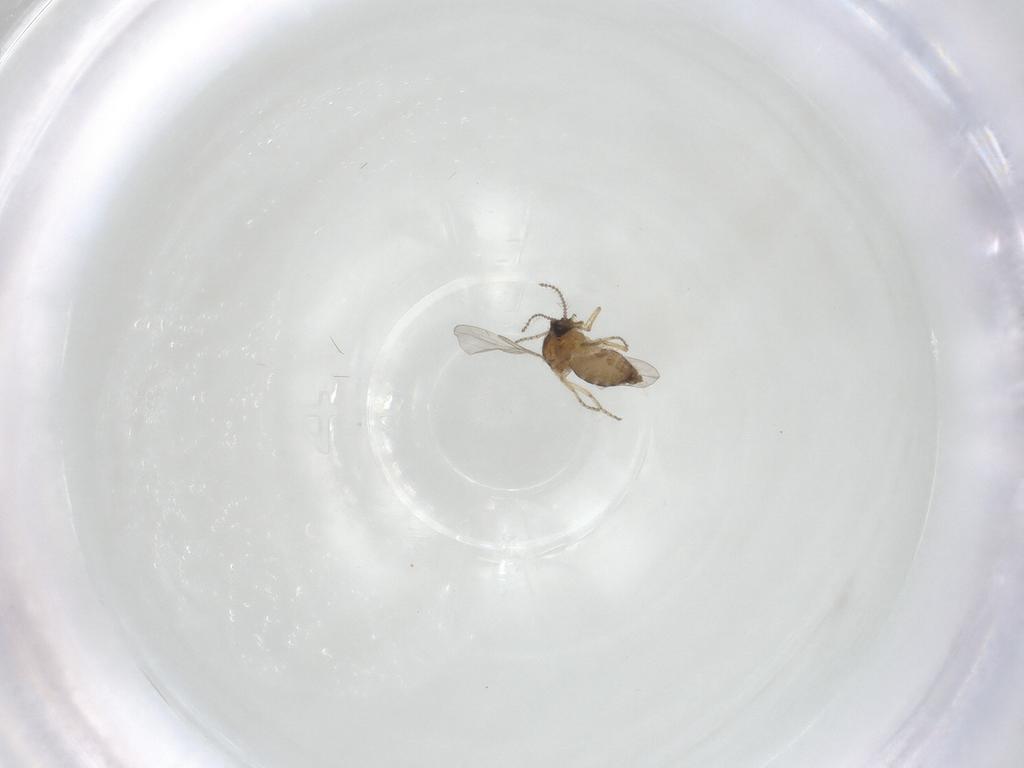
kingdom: Animalia
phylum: Arthropoda
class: Insecta
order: Diptera
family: Ceratopogonidae
